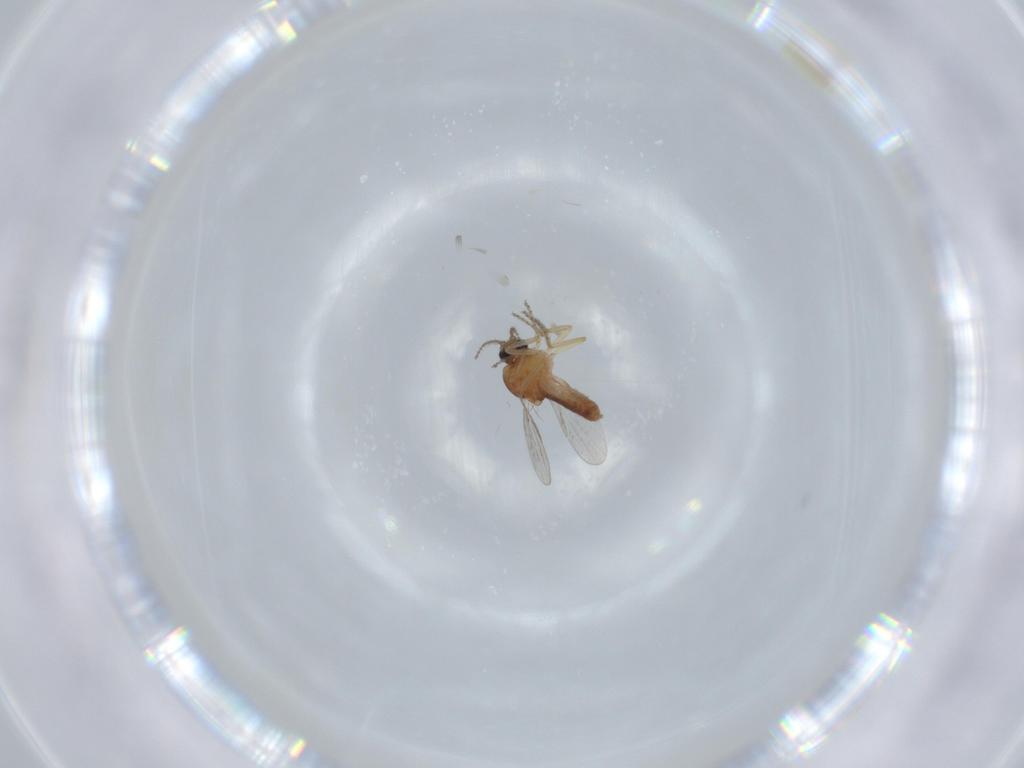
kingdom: Animalia
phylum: Arthropoda
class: Insecta
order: Diptera
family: Ceratopogonidae
